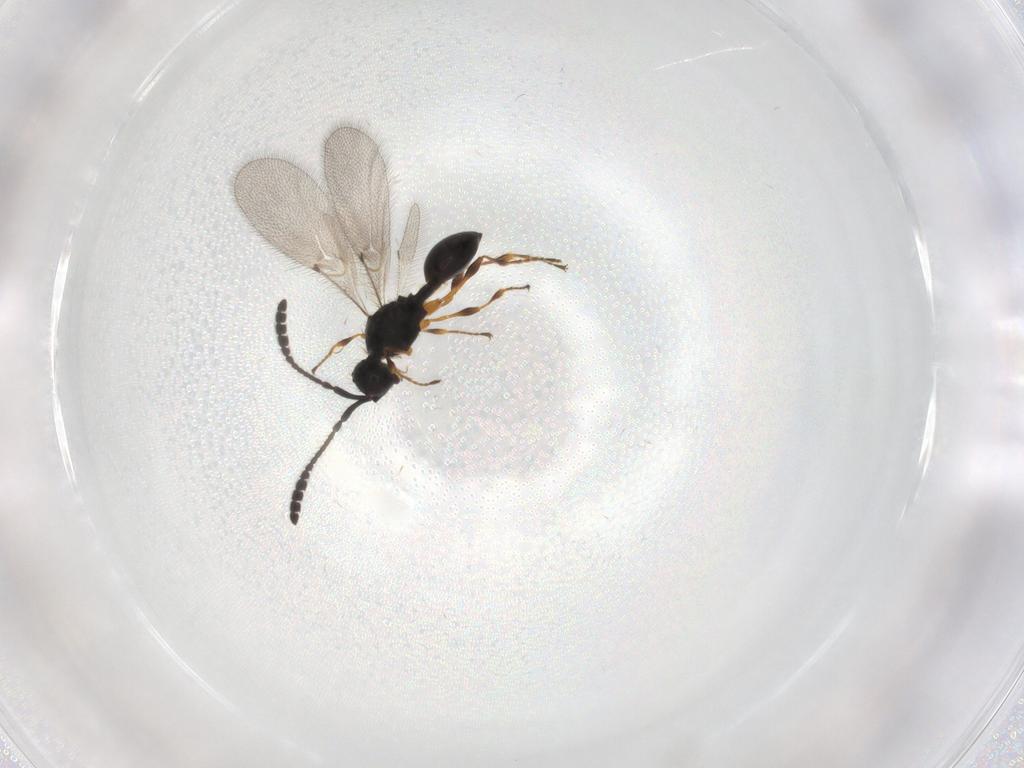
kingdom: Animalia
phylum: Arthropoda
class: Insecta
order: Hymenoptera
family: Diapriidae
